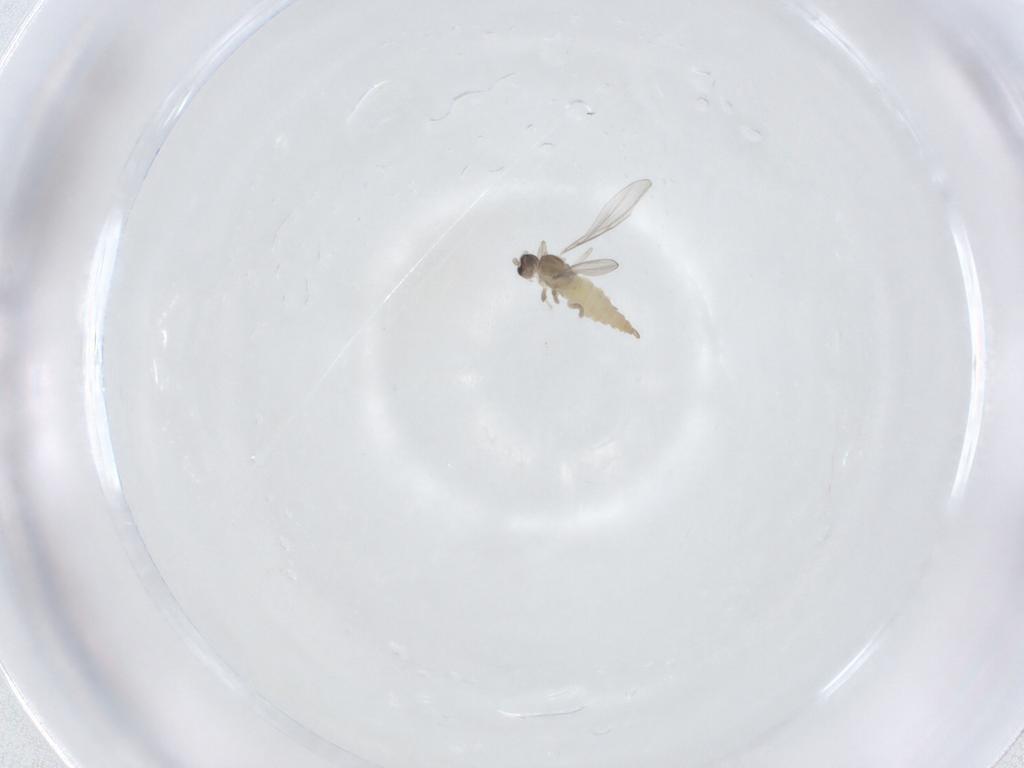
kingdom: Animalia
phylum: Arthropoda
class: Insecta
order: Diptera
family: Cecidomyiidae
